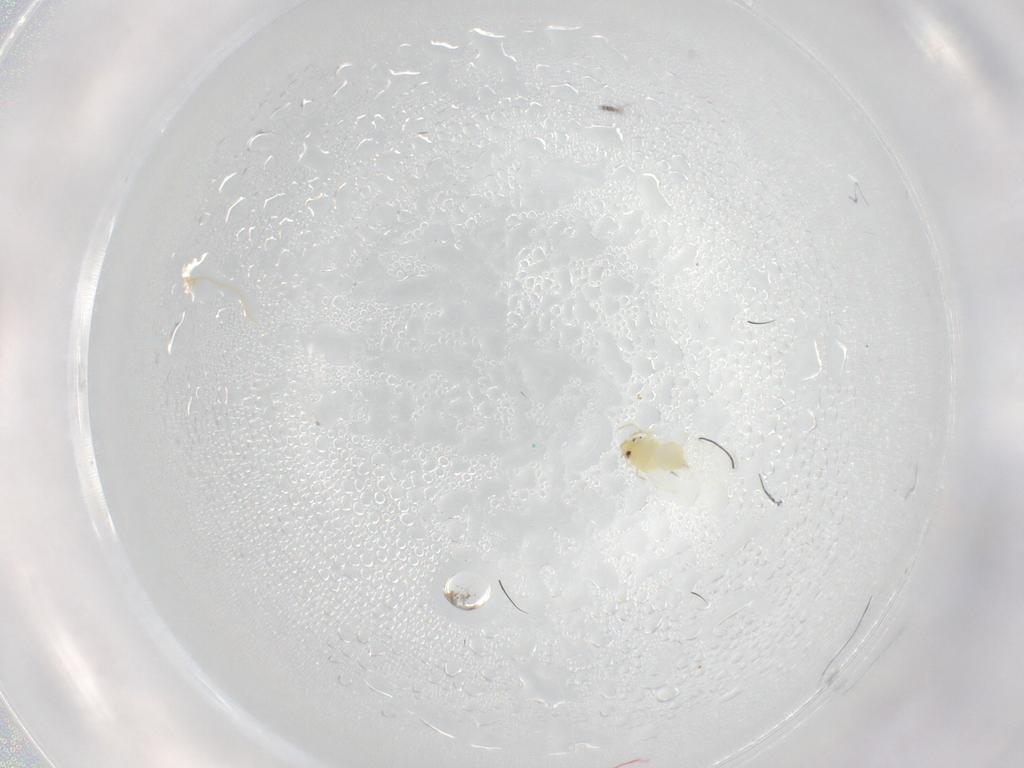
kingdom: Animalia
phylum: Arthropoda
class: Insecta
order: Hemiptera
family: Aleyrodidae
